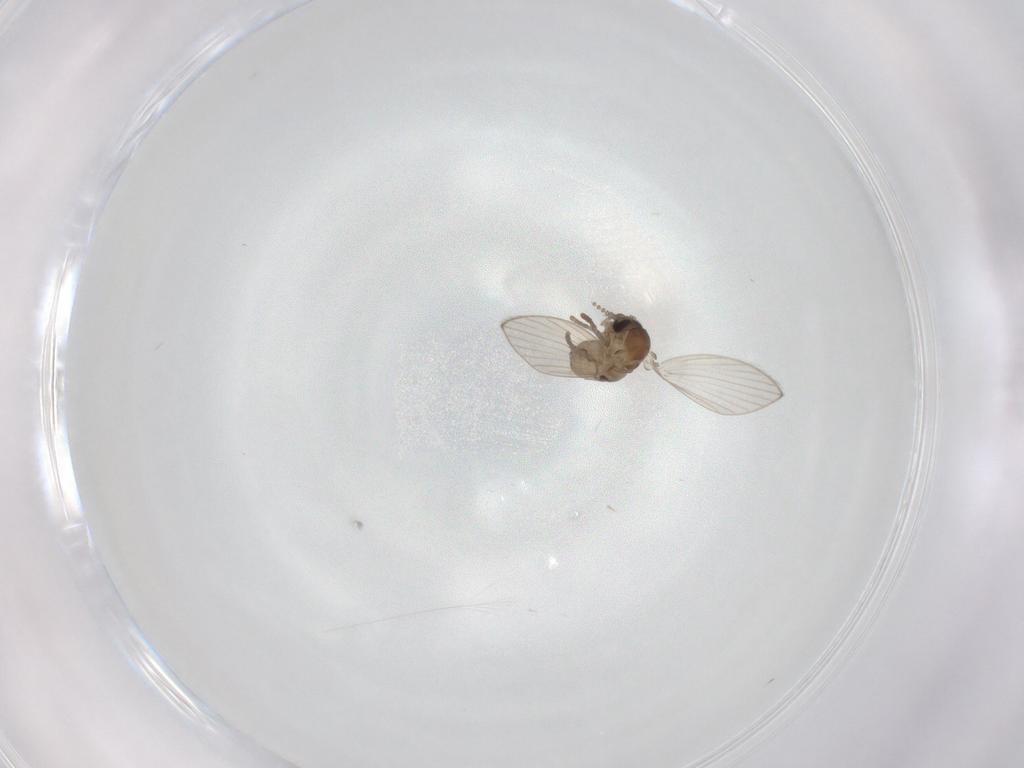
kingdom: Animalia
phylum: Arthropoda
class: Insecta
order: Diptera
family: Psychodidae
